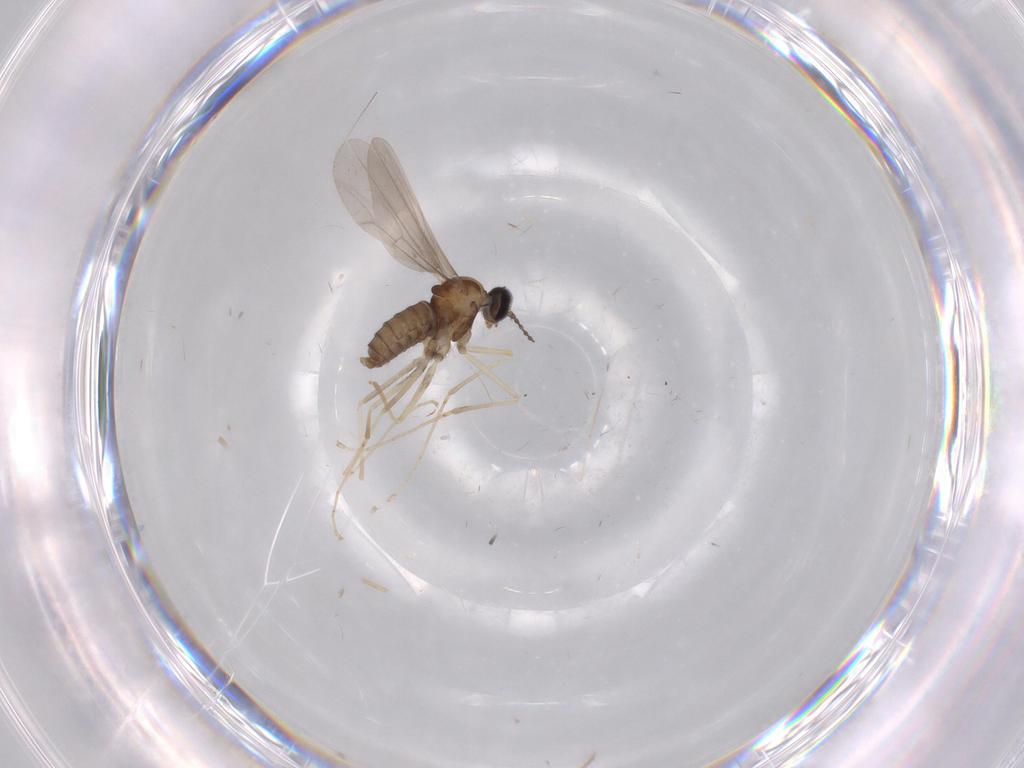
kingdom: Animalia
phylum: Arthropoda
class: Insecta
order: Diptera
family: Cecidomyiidae
